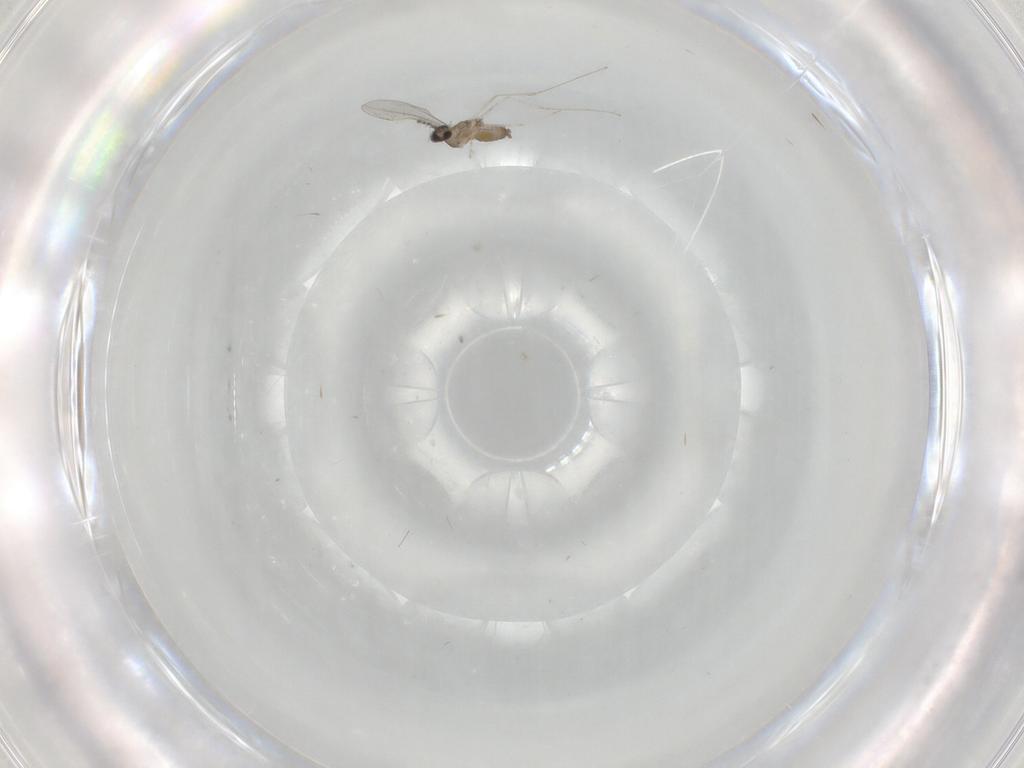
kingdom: Animalia
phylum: Arthropoda
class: Insecta
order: Diptera
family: Cecidomyiidae
